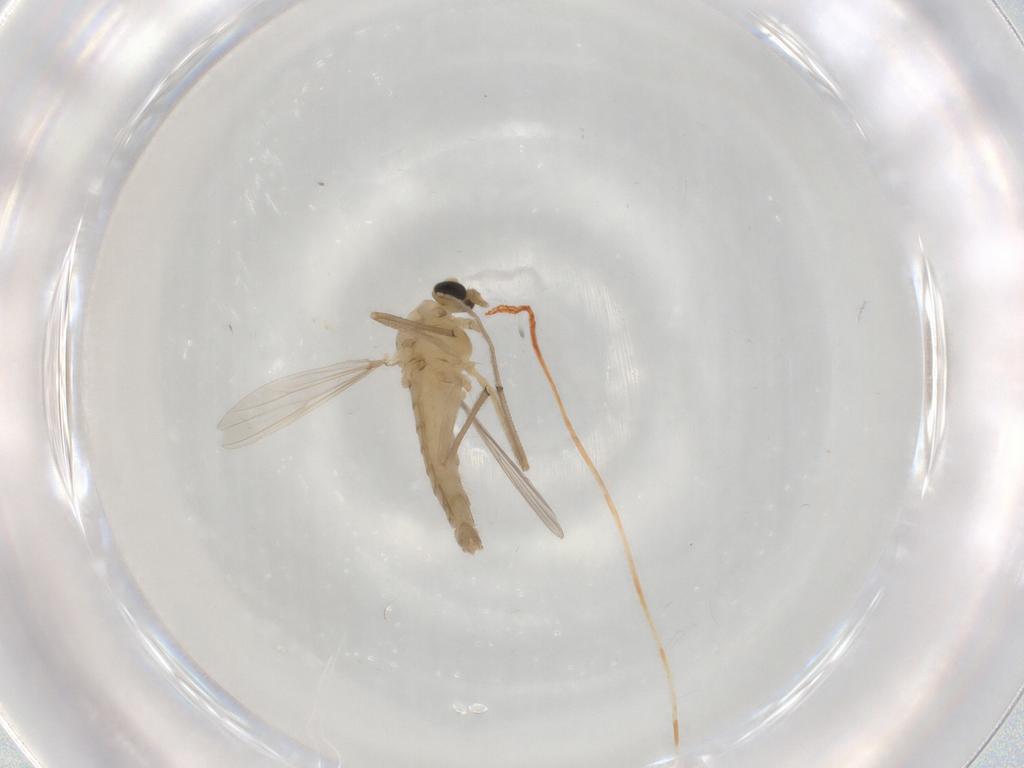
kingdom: Animalia
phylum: Arthropoda
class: Insecta
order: Diptera
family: Chironomidae
